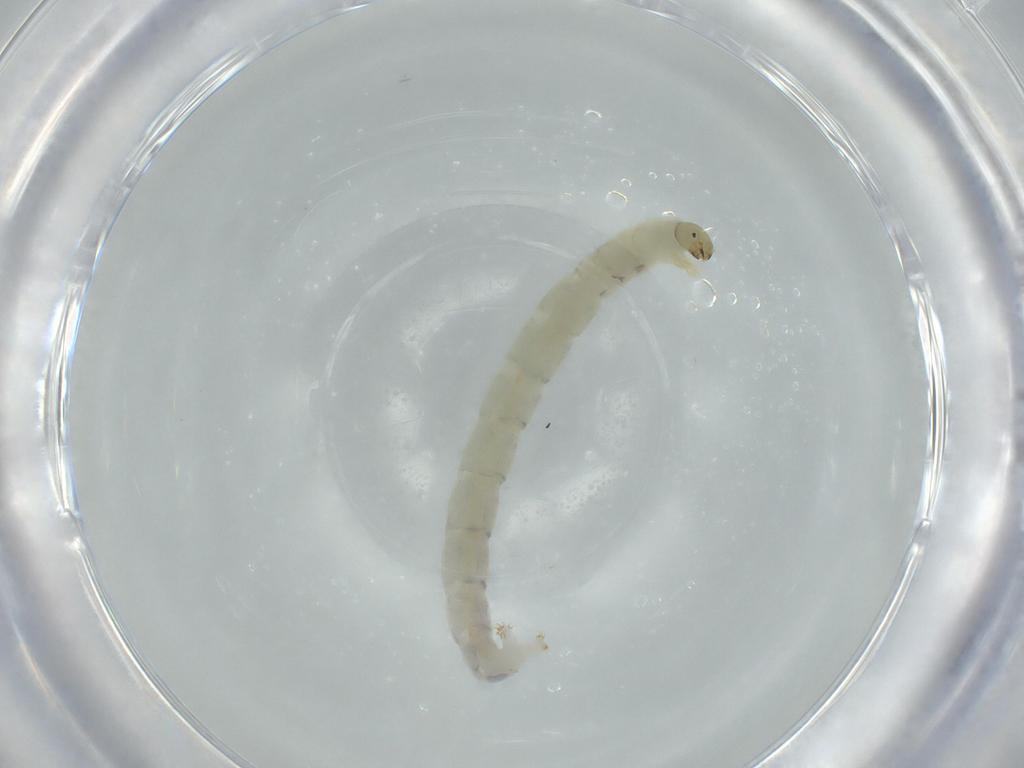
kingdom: Animalia
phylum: Arthropoda
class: Insecta
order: Diptera
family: Chironomidae
